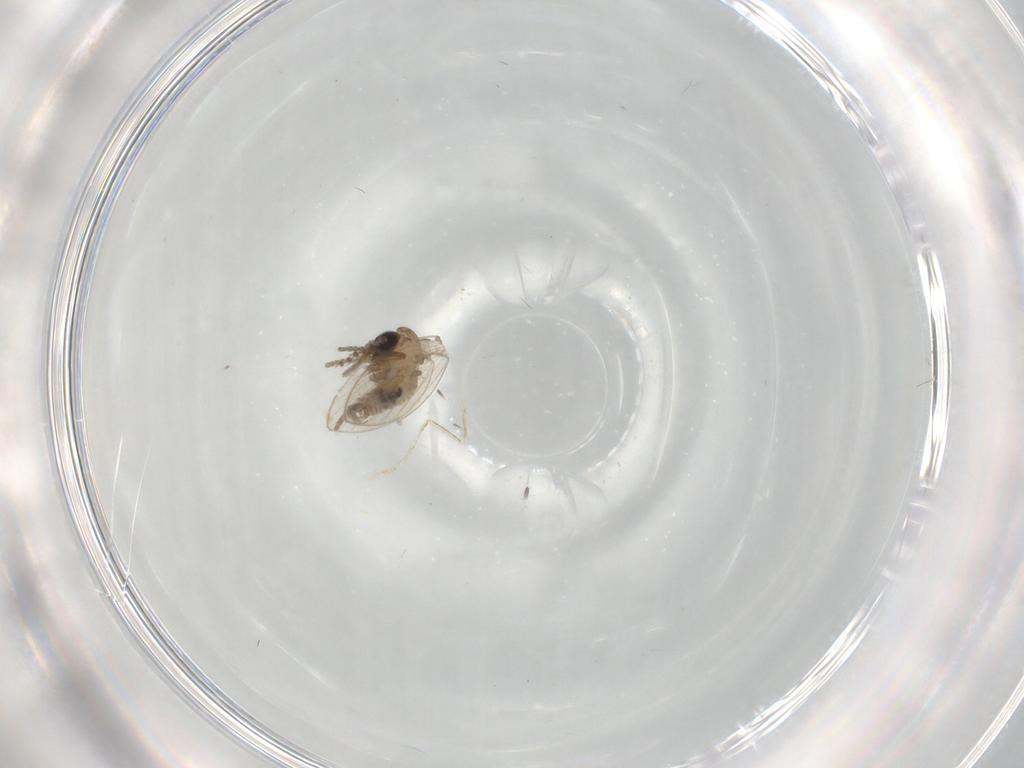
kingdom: Animalia
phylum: Arthropoda
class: Insecta
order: Diptera
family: Psychodidae
